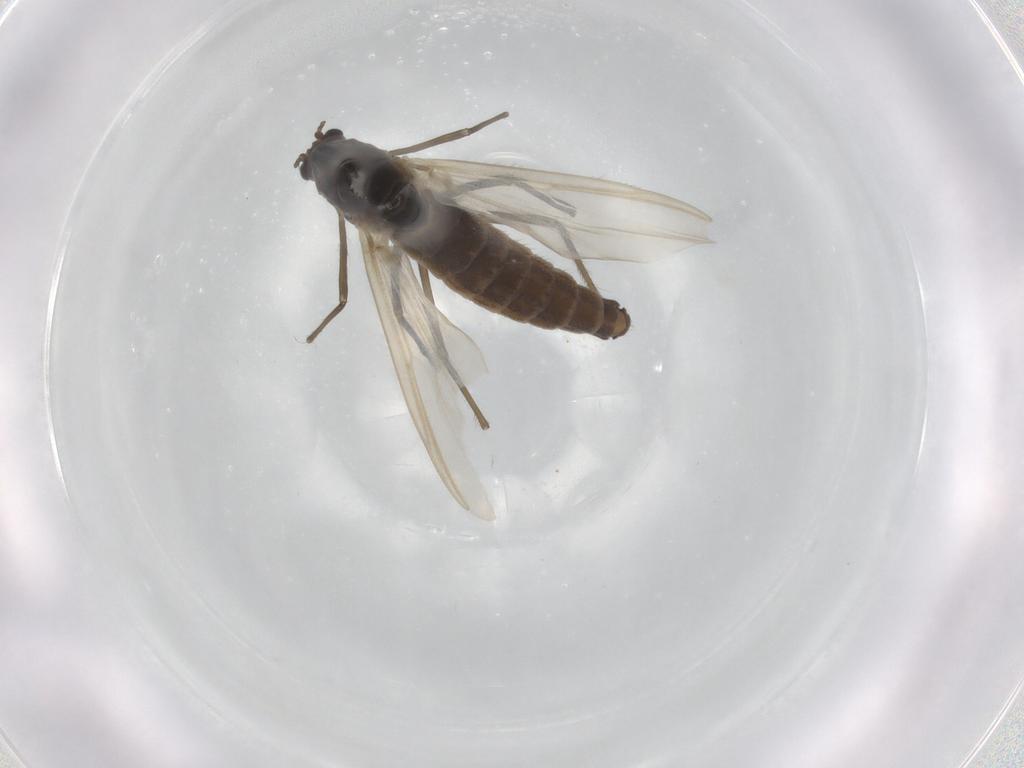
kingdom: Animalia
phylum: Arthropoda
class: Insecta
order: Diptera
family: Chironomidae
